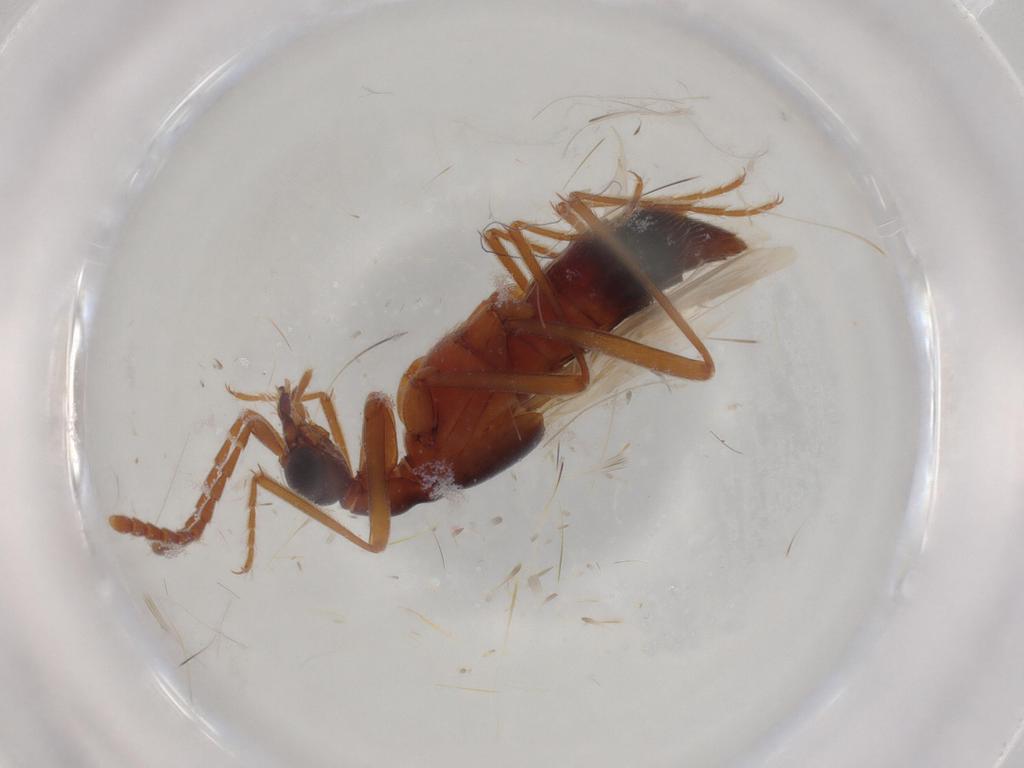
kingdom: Animalia
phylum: Arthropoda
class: Insecta
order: Coleoptera
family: Staphylinidae
